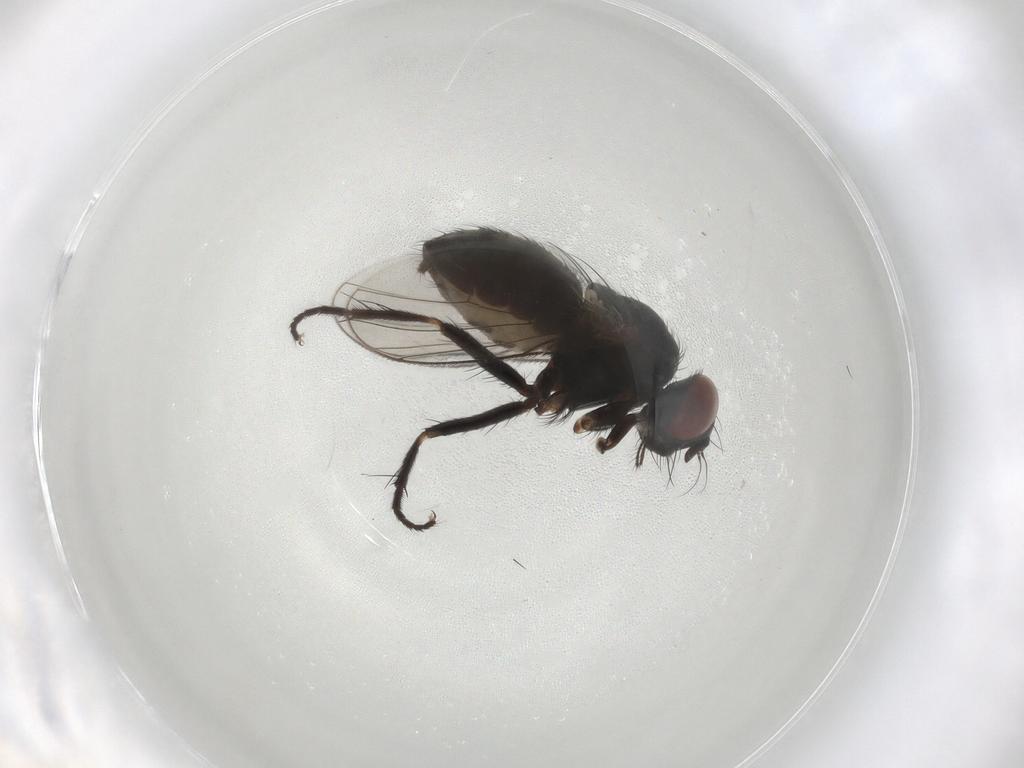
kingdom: Animalia
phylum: Arthropoda
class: Insecta
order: Diptera
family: Muscidae
